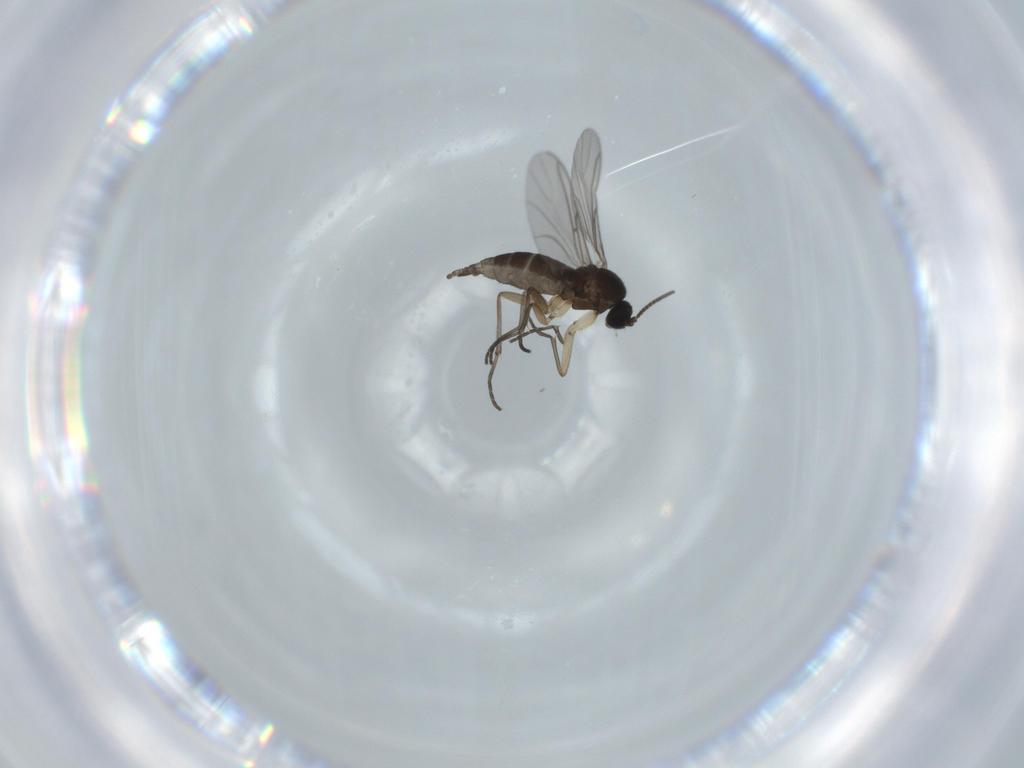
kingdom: Animalia
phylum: Arthropoda
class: Insecta
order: Diptera
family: Sciaridae
